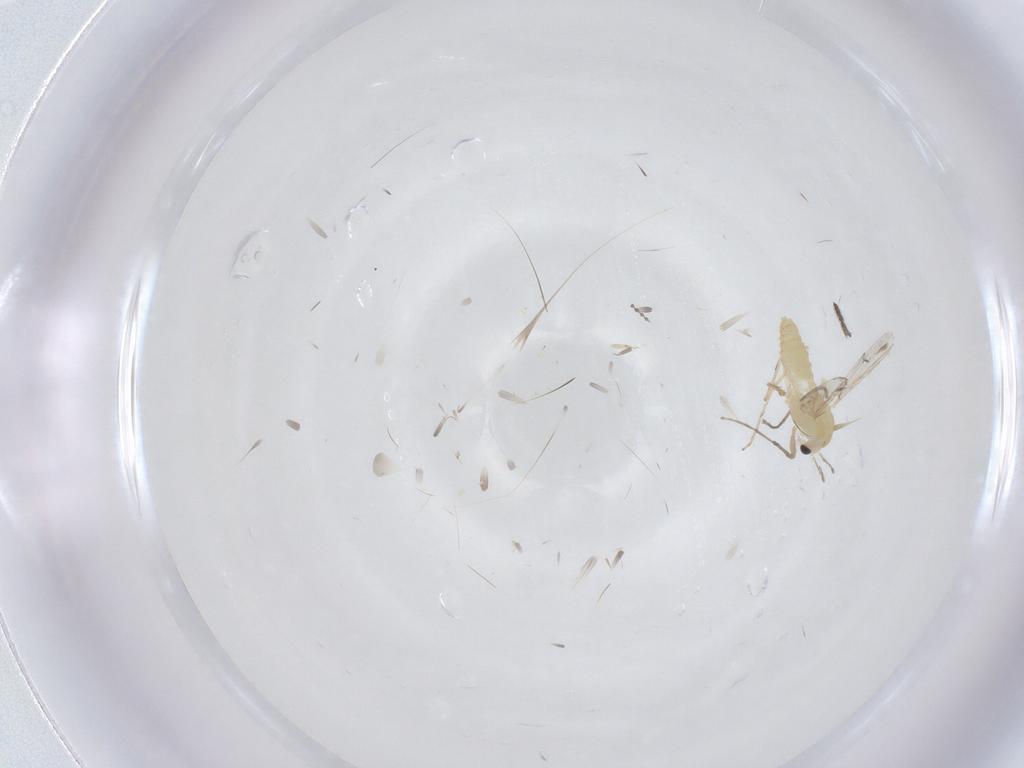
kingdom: Animalia
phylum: Arthropoda
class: Insecta
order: Diptera
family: Chironomidae
